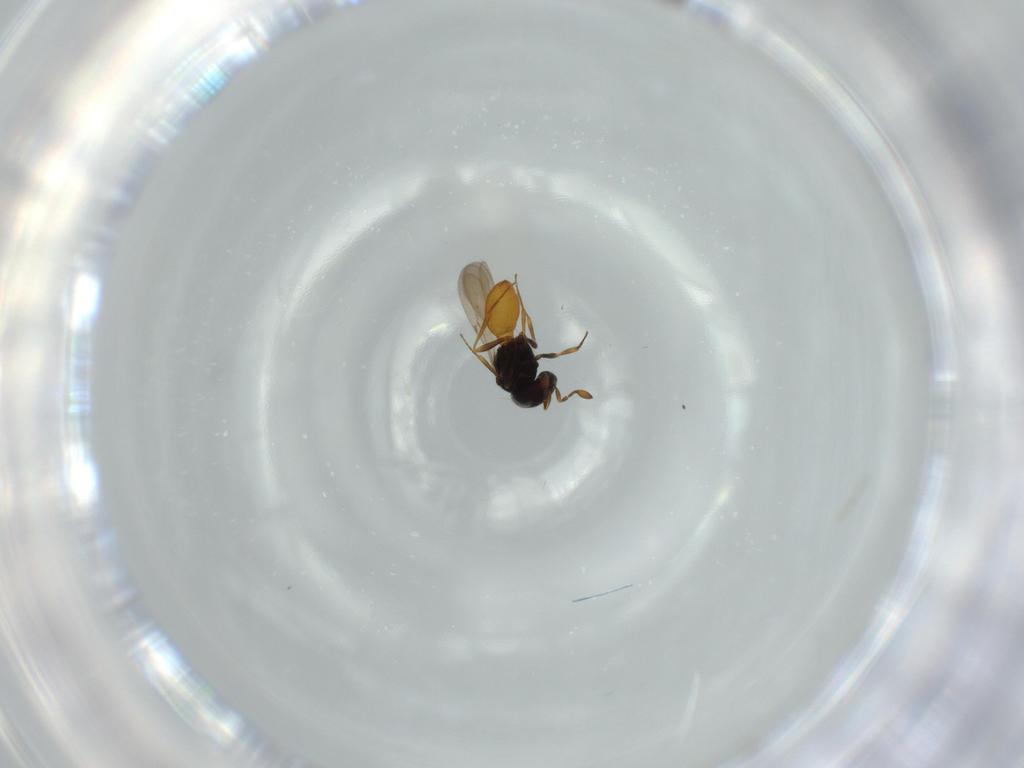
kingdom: Animalia
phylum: Arthropoda
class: Insecta
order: Hymenoptera
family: Scelionidae
